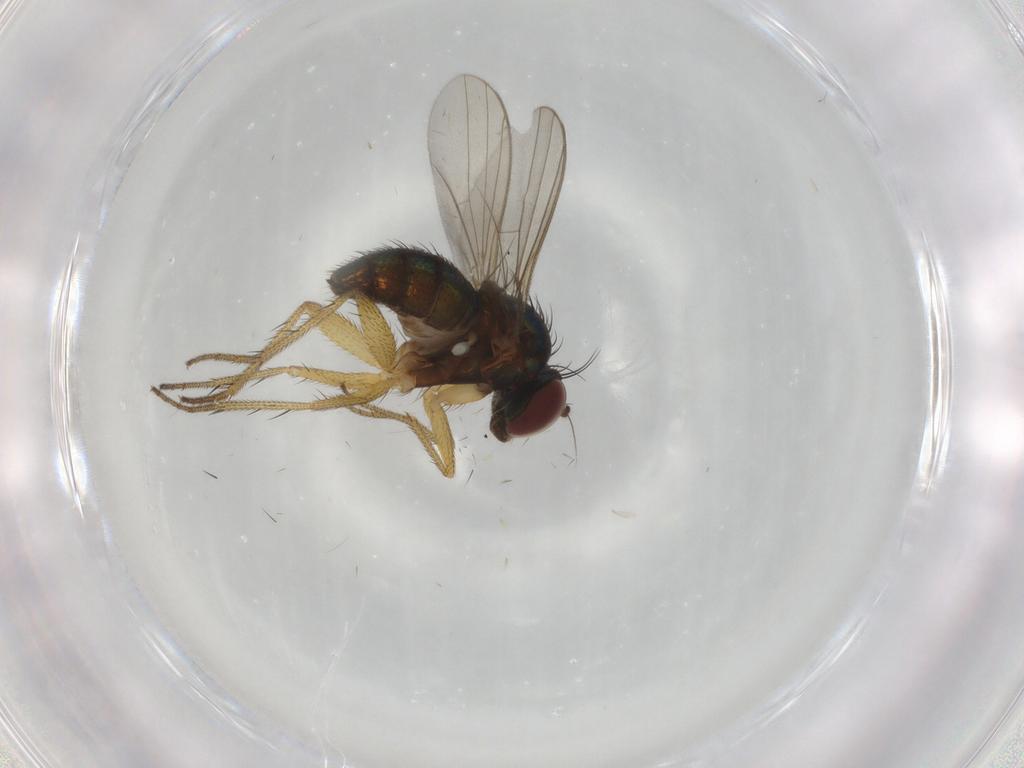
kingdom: Animalia
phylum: Arthropoda
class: Insecta
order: Diptera
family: Dolichopodidae
